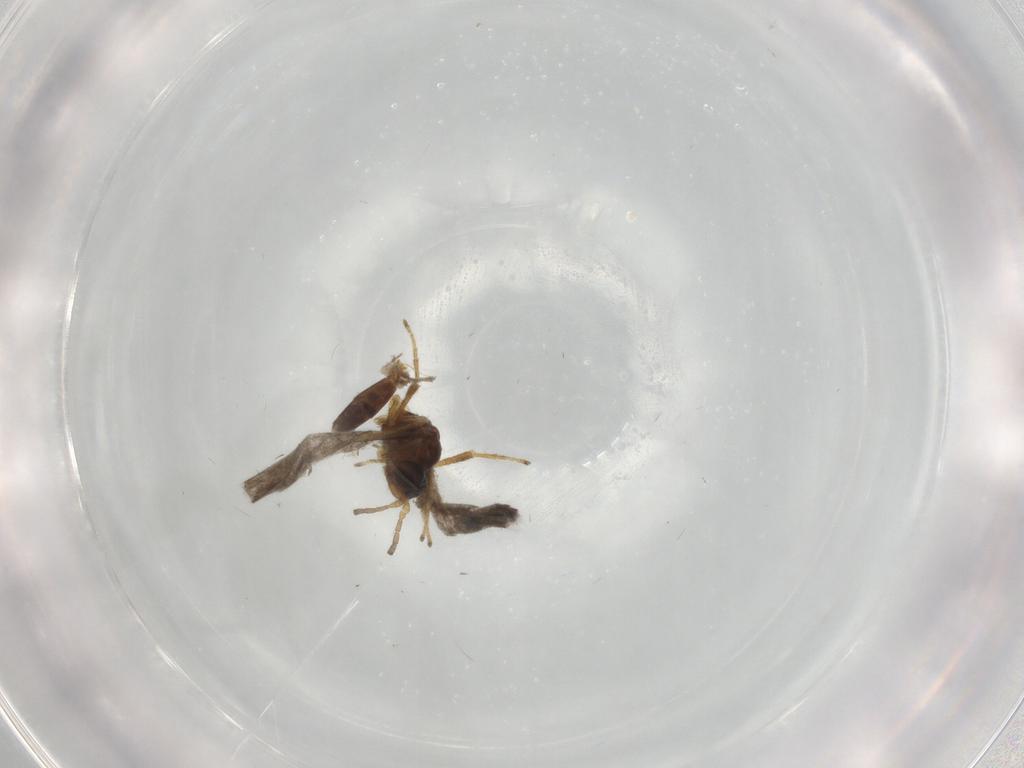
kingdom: Animalia
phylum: Arthropoda
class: Insecta
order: Diptera
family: Cecidomyiidae
